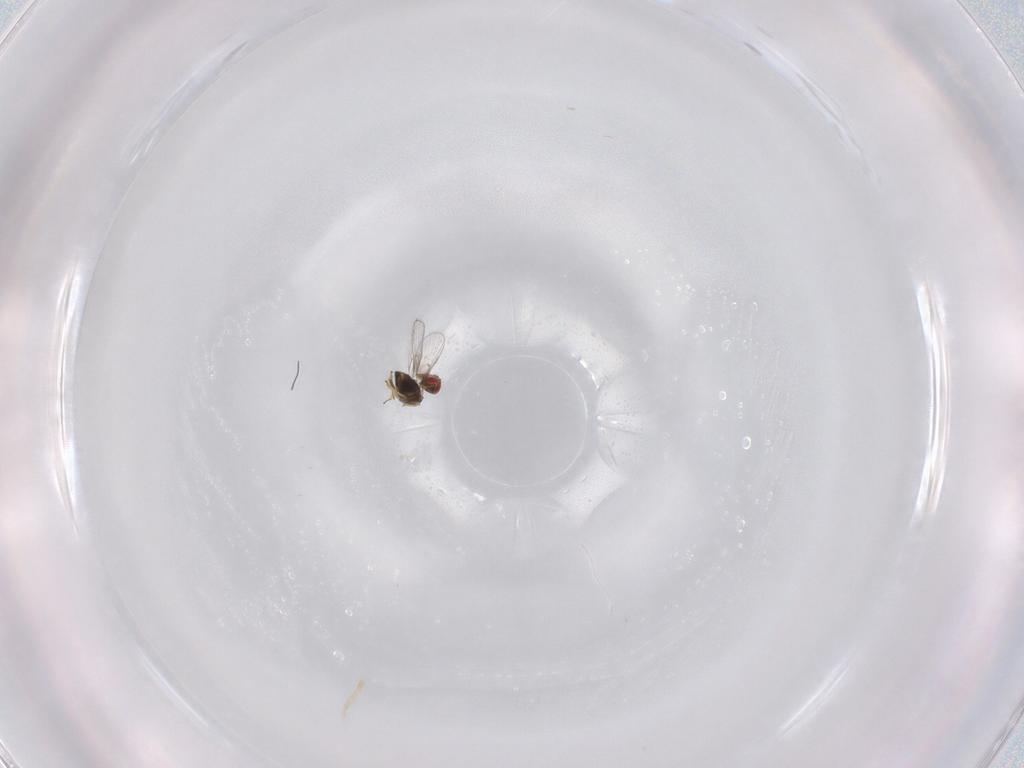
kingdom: Animalia
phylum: Arthropoda
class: Insecta
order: Hymenoptera
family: Trichogrammatidae
